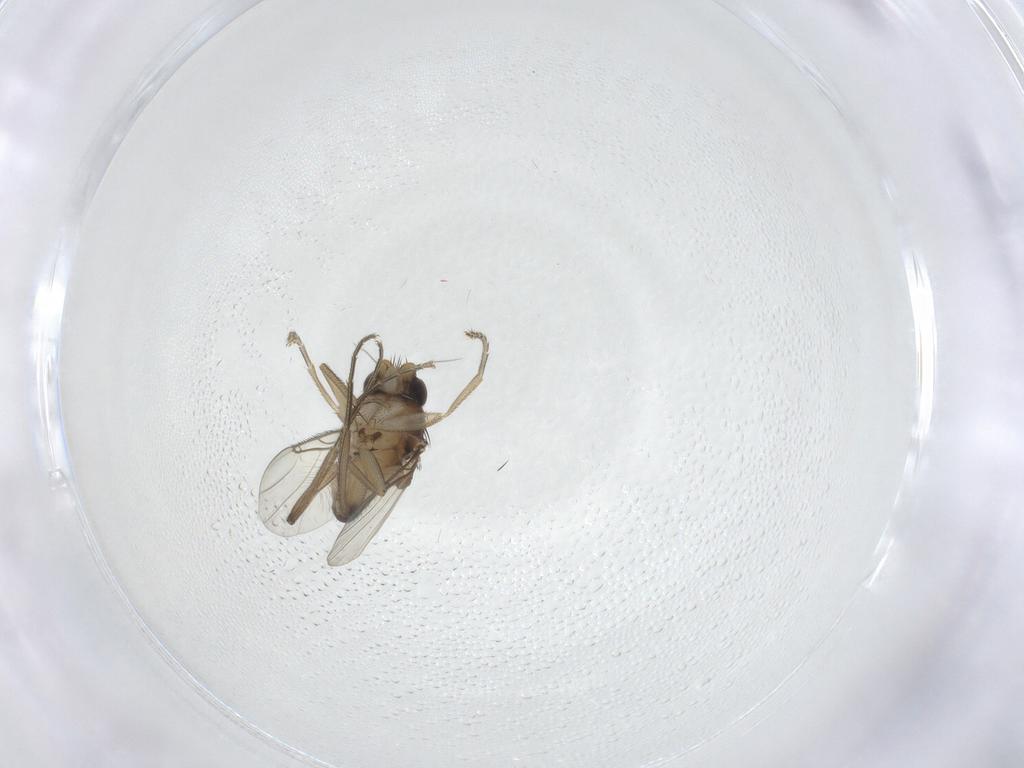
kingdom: Animalia
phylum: Arthropoda
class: Insecta
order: Diptera
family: Phoridae
